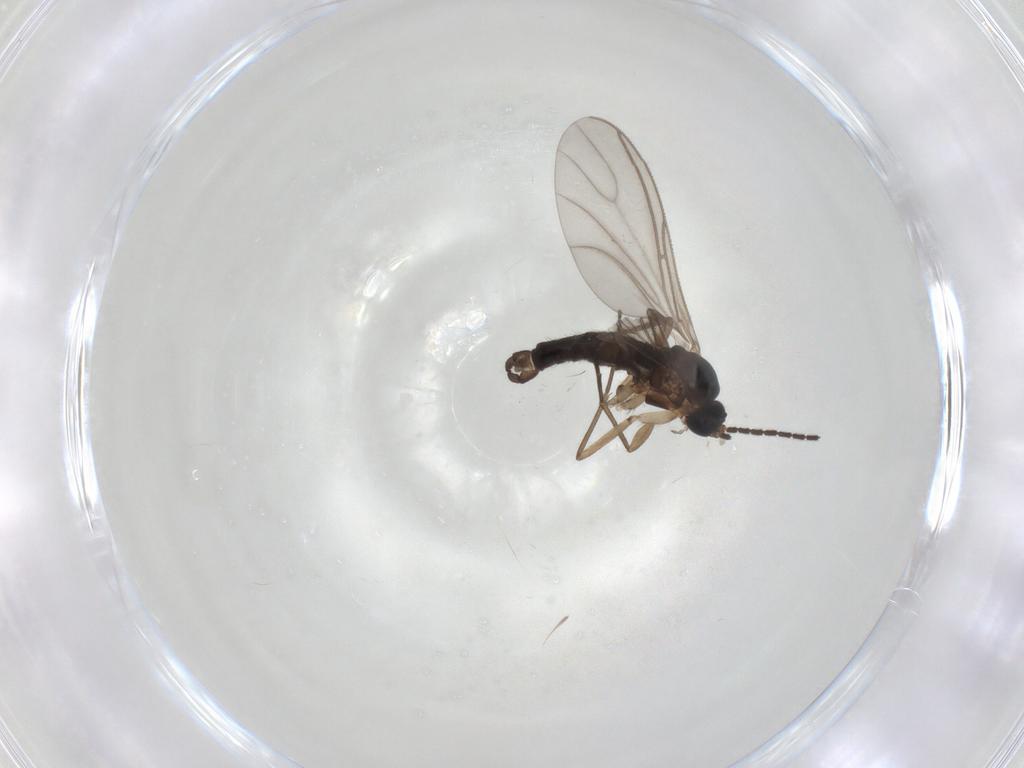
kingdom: Animalia
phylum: Arthropoda
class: Insecta
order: Diptera
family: Sciaridae
